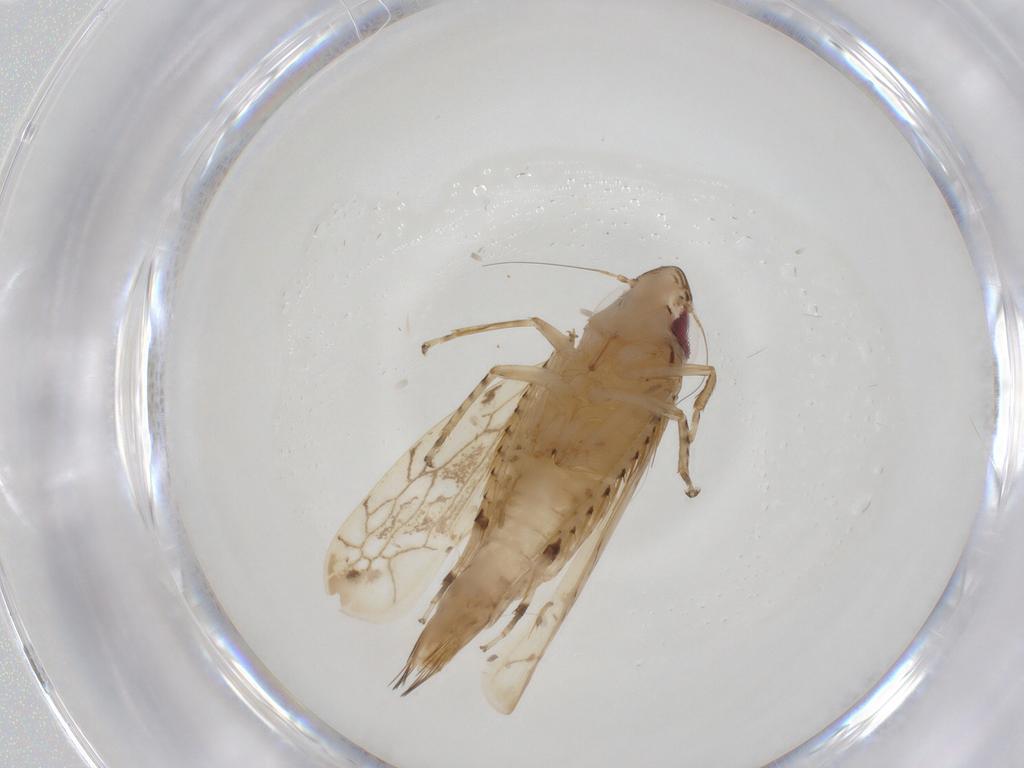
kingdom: Animalia
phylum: Arthropoda
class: Insecta
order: Hemiptera
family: Cicadellidae
